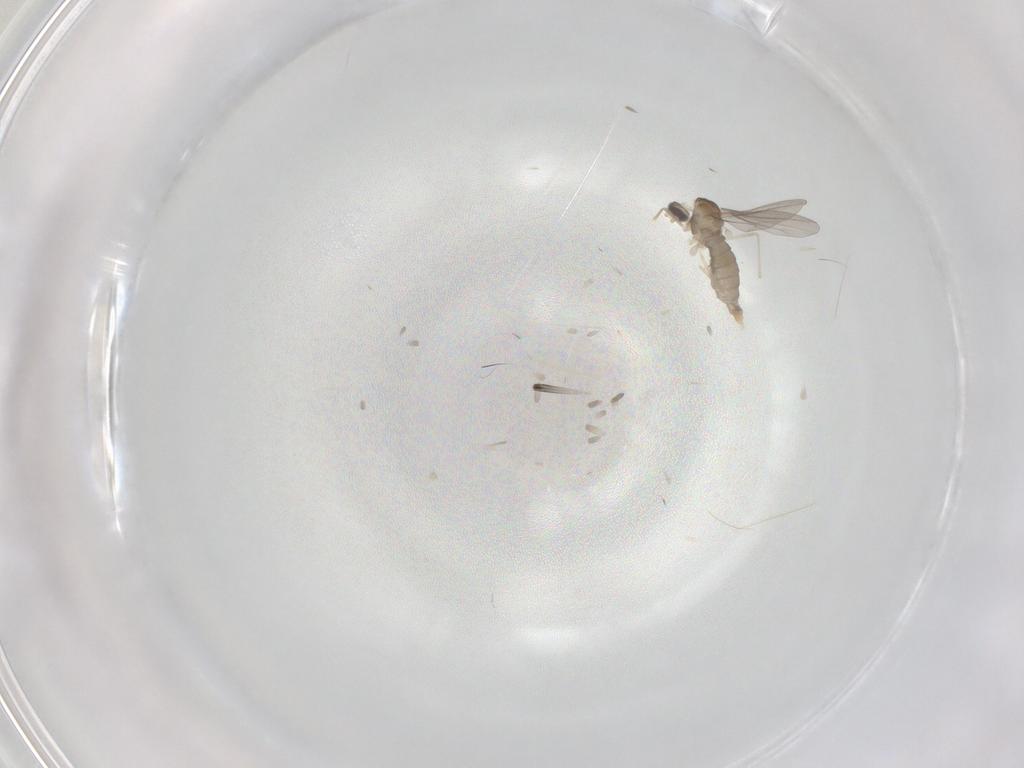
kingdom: Animalia
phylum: Arthropoda
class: Insecta
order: Diptera
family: Cecidomyiidae
